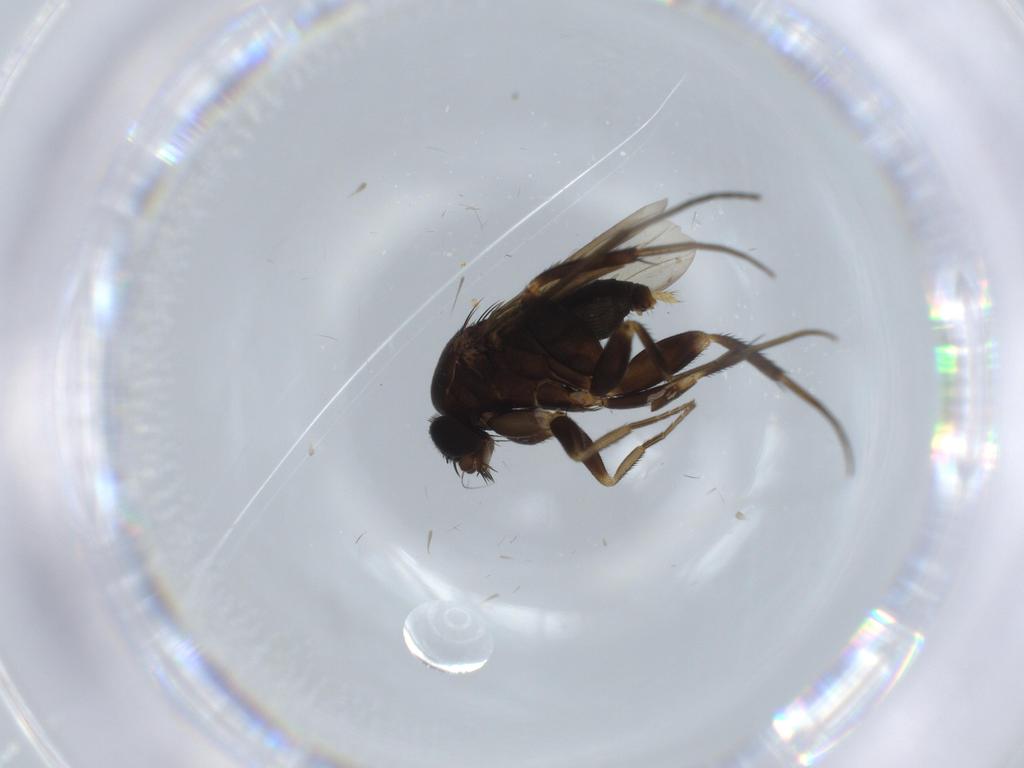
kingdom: Animalia
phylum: Arthropoda
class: Insecta
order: Diptera
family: Phoridae
